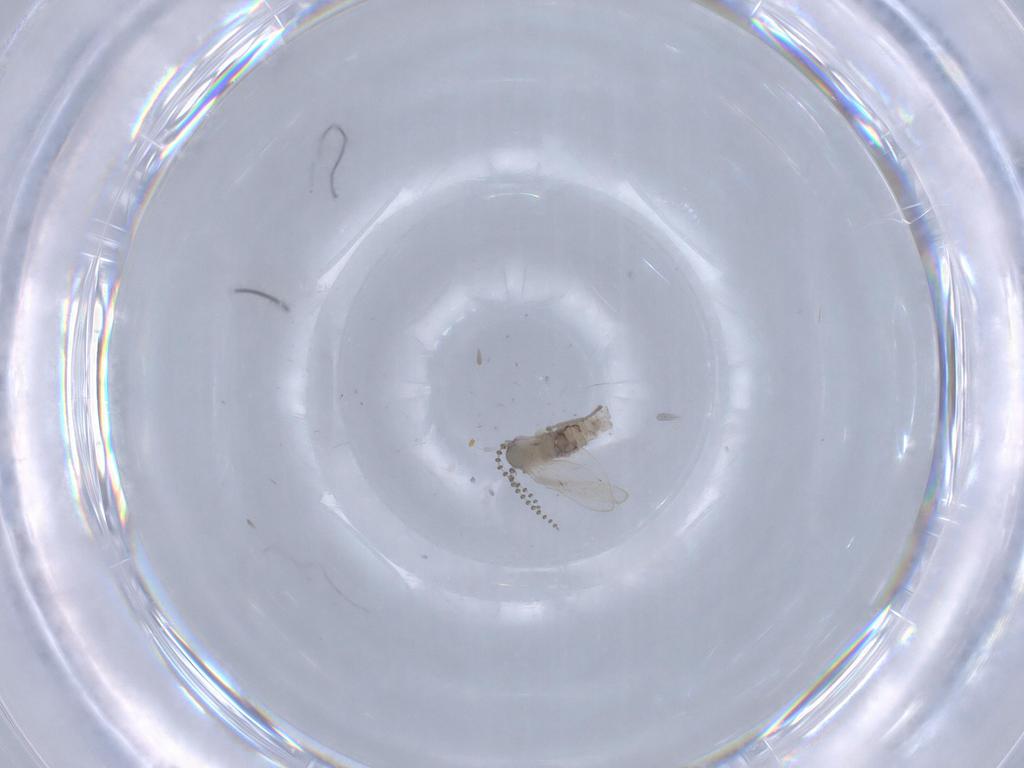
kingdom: Animalia
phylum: Arthropoda
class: Insecta
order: Diptera
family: Psychodidae
